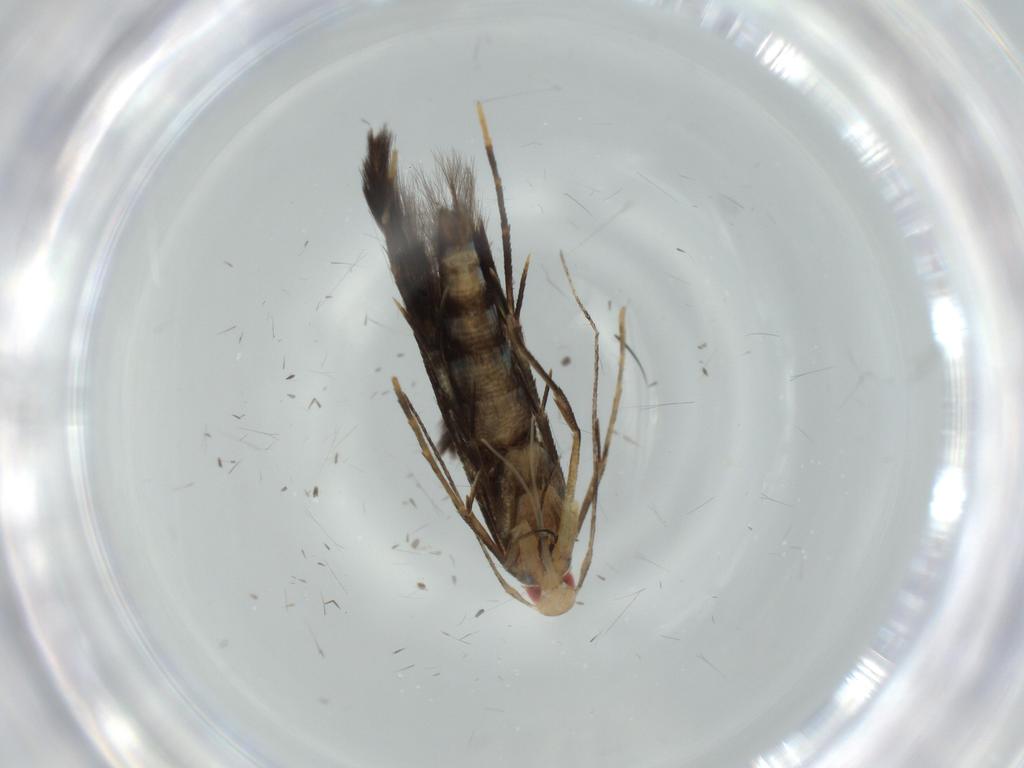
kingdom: Animalia
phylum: Arthropoda
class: Insecta
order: Lepidoptera
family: Cosmopterigidae
